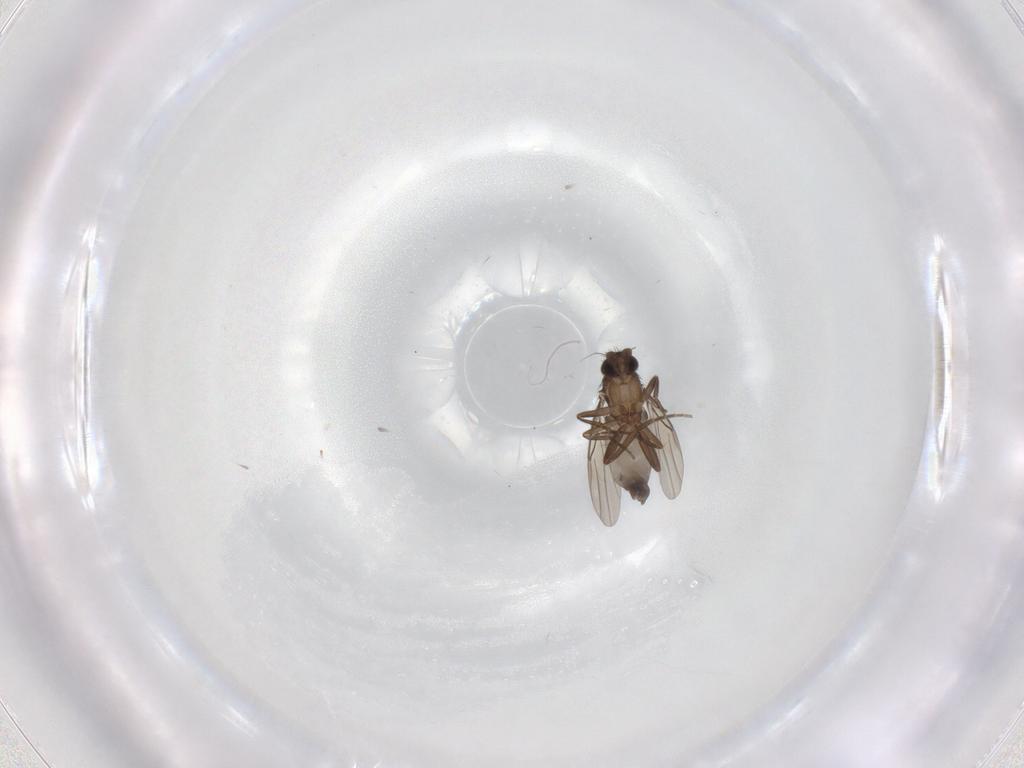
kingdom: Animalia
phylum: Arthropoda
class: Insecta
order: Diptera
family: Phoridae
